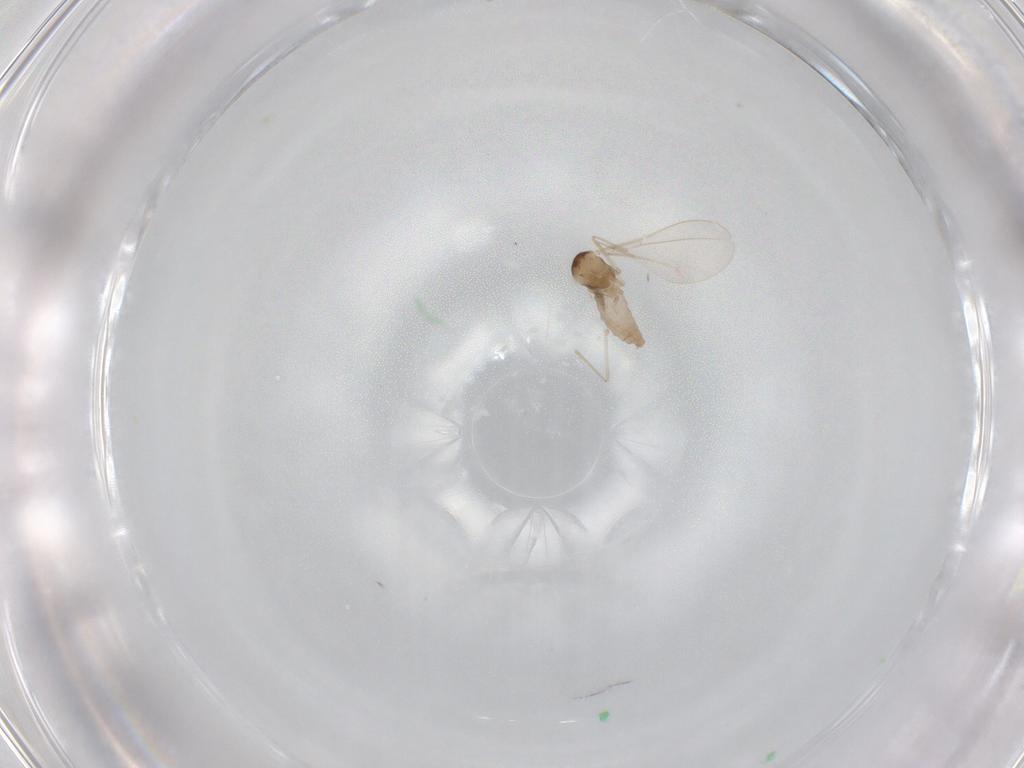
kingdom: Animalia
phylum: Arthropoda
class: Insecta
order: Diptera
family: Cecidomyiidae
